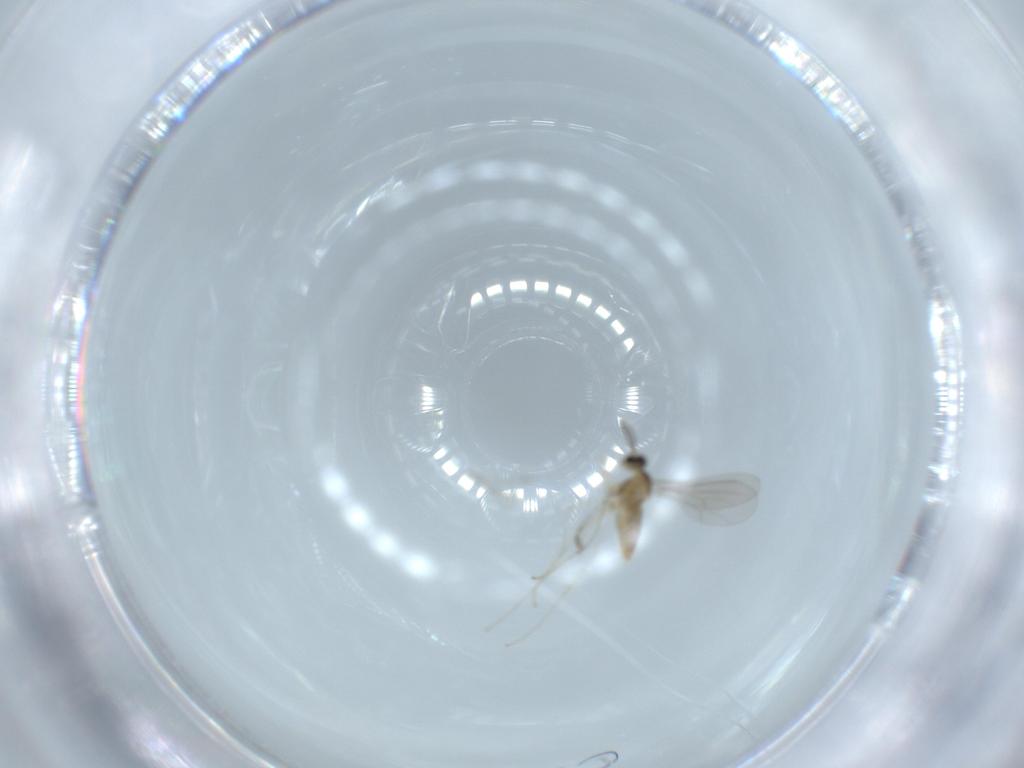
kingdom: Animalia
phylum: Arthropoda
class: Insecta
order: Diptera
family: Cecidomyiidae
